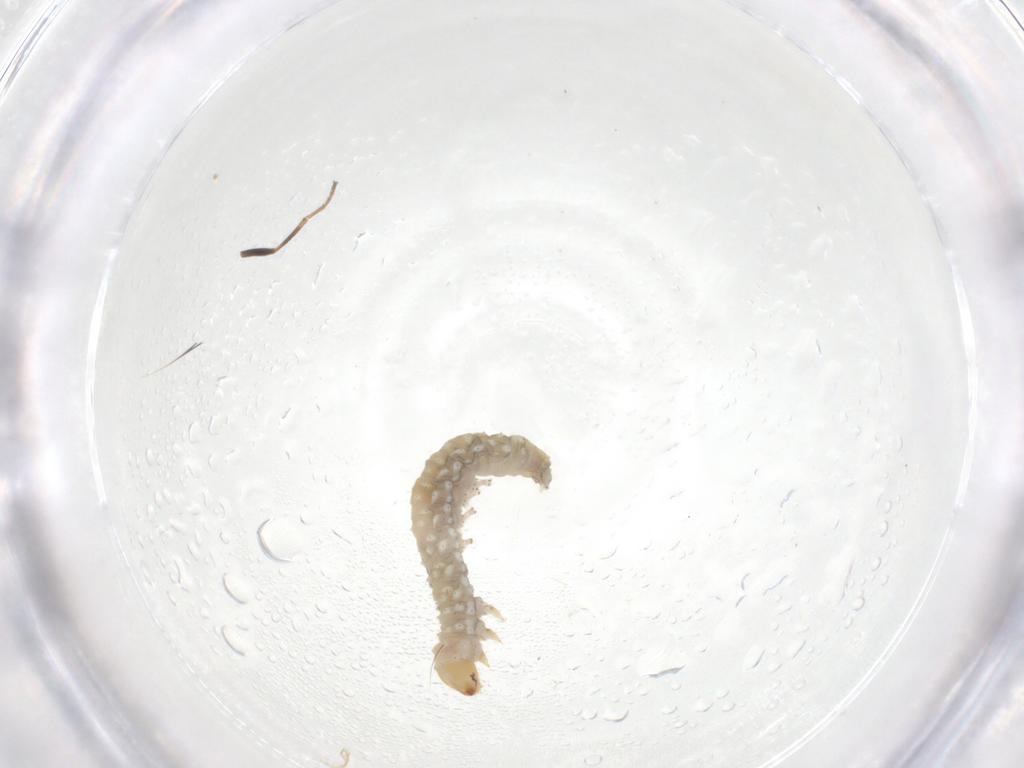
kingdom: Animalia
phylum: Arthropoda
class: Insecta
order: Lepidoptera
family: Bucculatricidae
